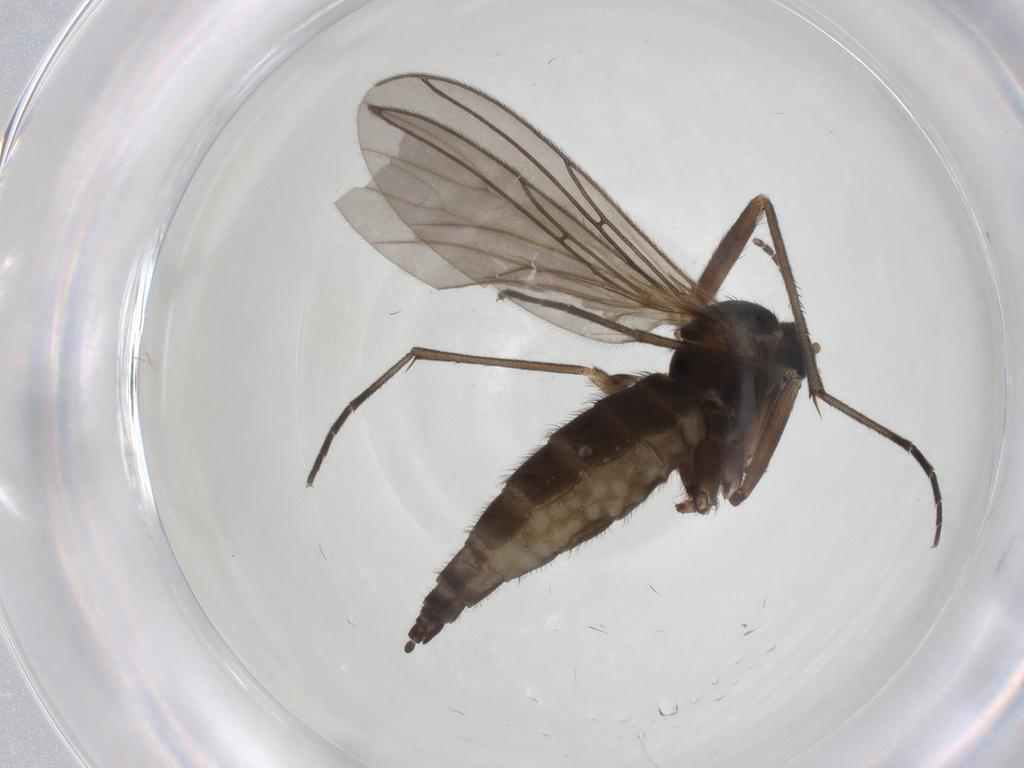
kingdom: Animalia
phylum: Arthropoda
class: Insecta
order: Diptera
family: Sciaridae
